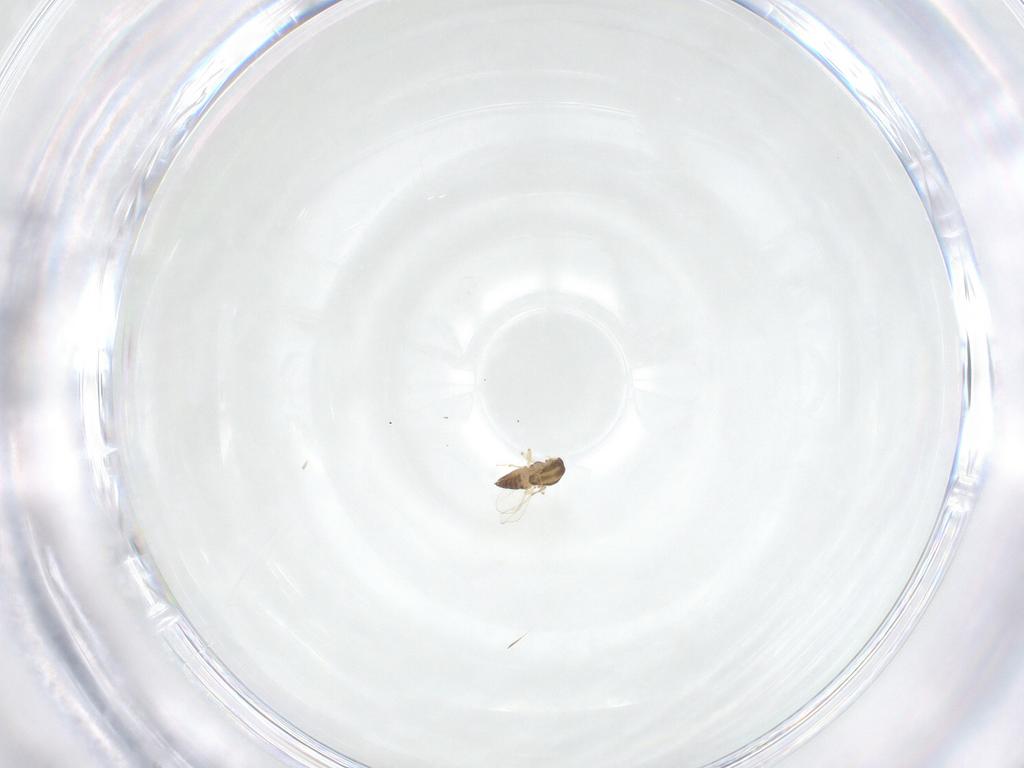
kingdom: Animalia
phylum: Arthropoda
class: Insecta
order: Diptera
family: Chironomidae
